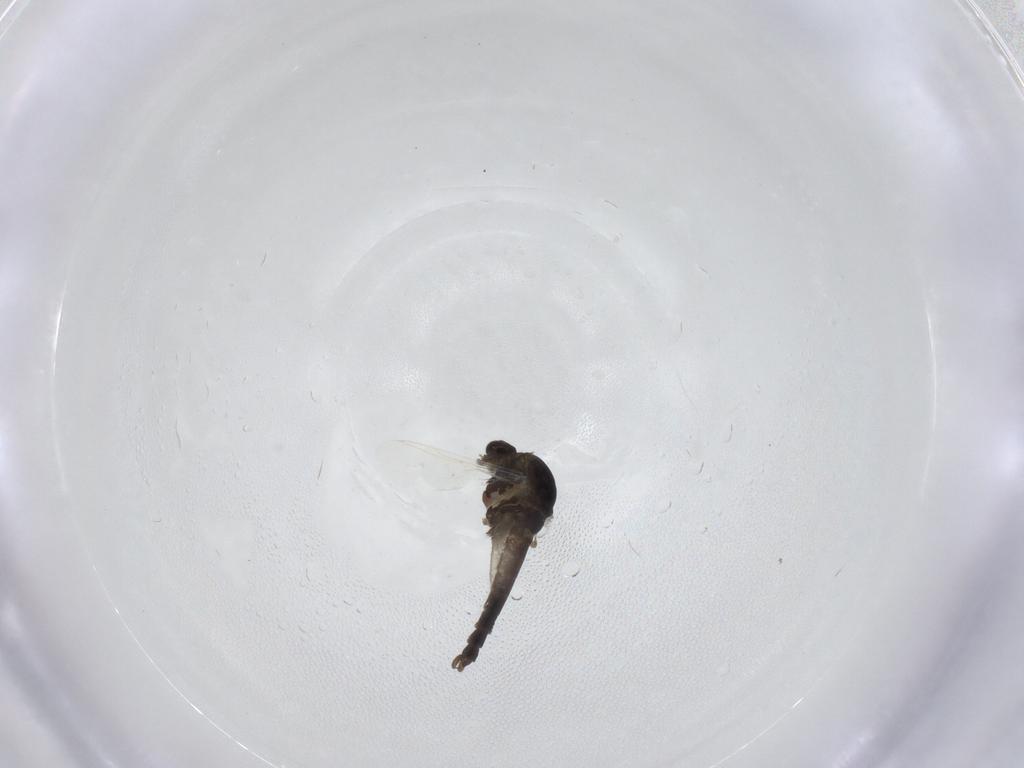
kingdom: Animalia
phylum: Arthropoda
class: Insecta
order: Diptera
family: Chironomidae
